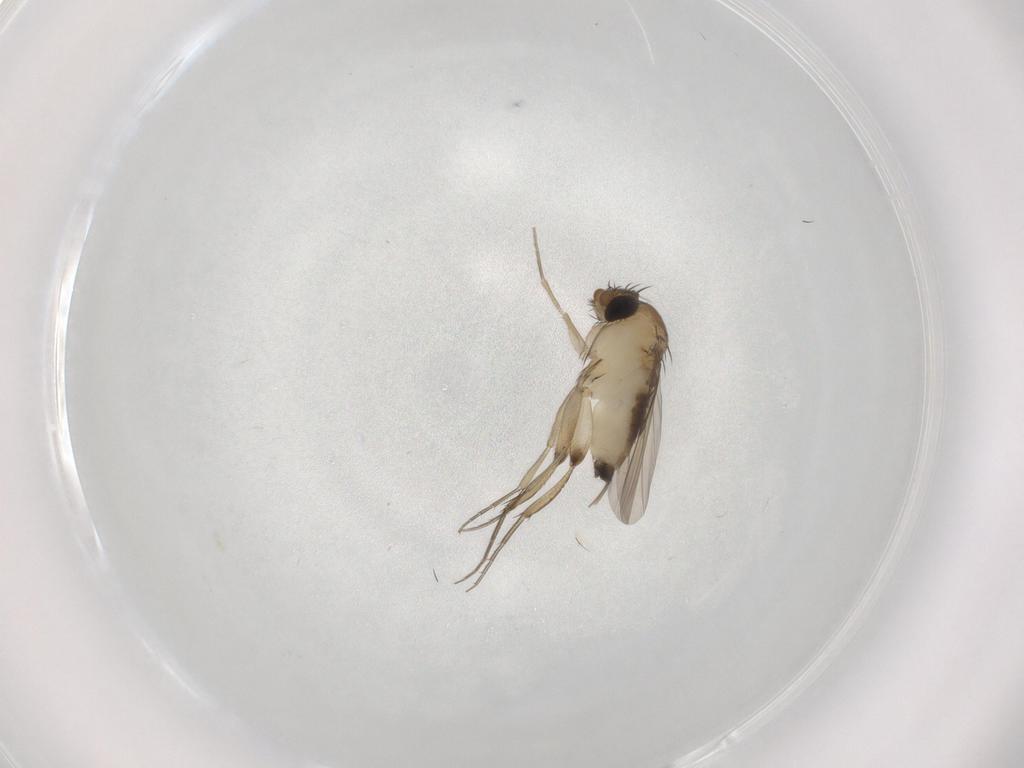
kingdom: Animalia
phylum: Arthropoda
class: Insecta
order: Diptera
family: Phoridae
